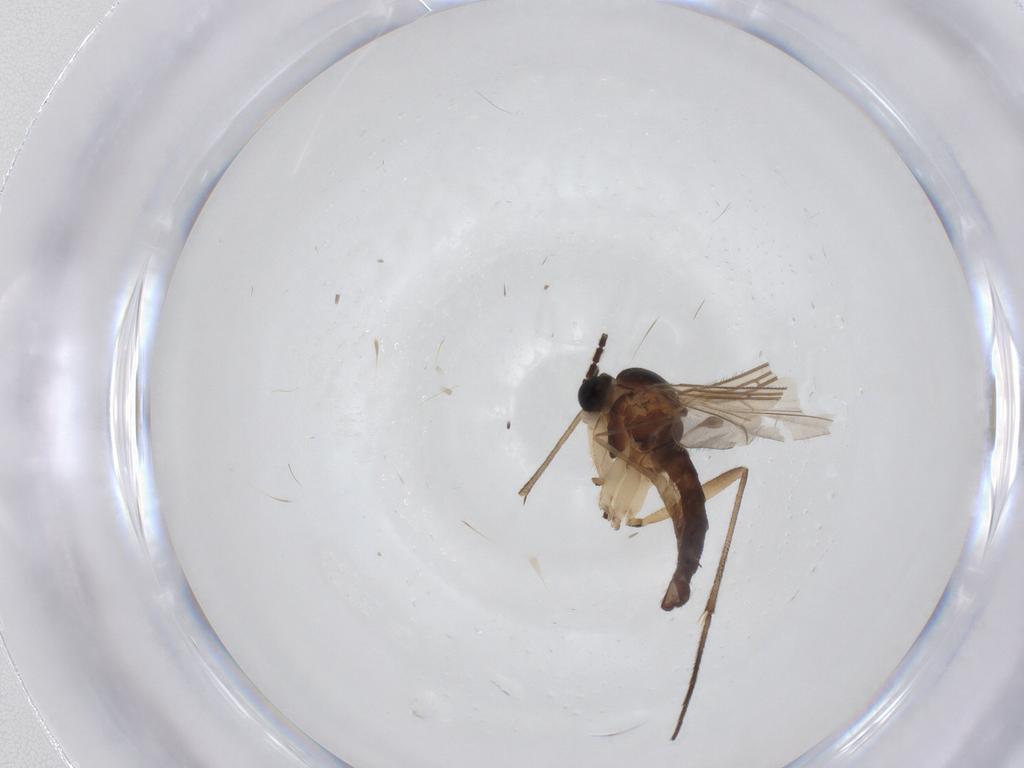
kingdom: Animalia
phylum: Arthropoda
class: Insecta
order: Diptera
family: Sciaridae
